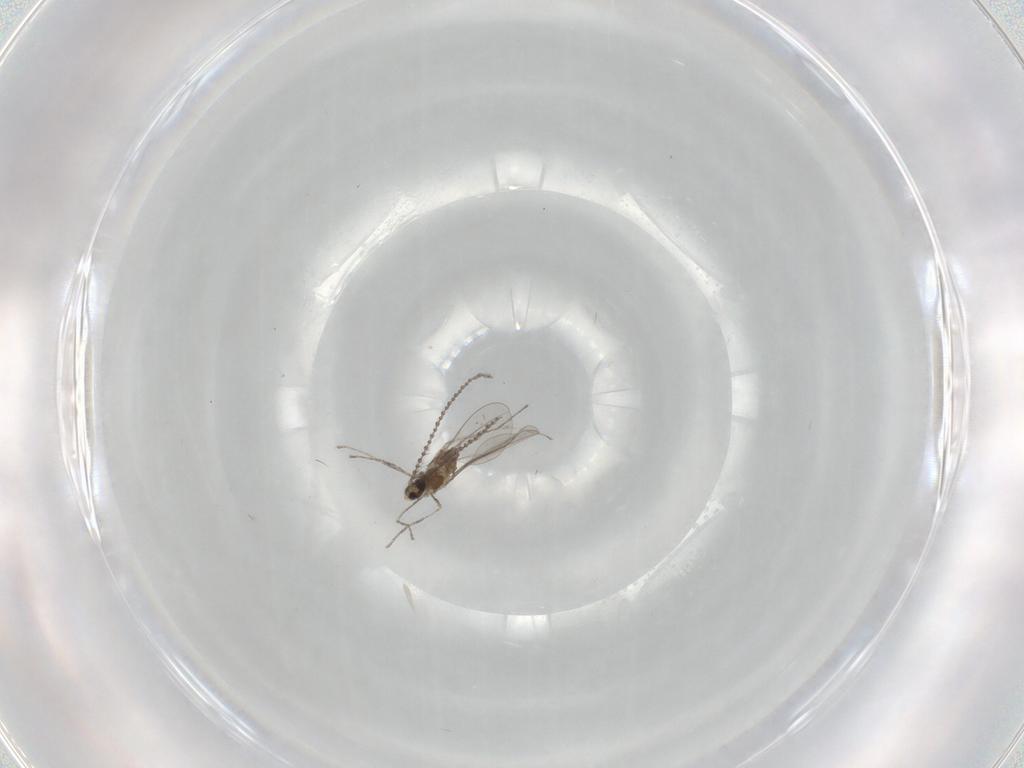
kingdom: Animalia
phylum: Arthropoda
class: Insecta
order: Diptera
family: Cecidomyiidae
